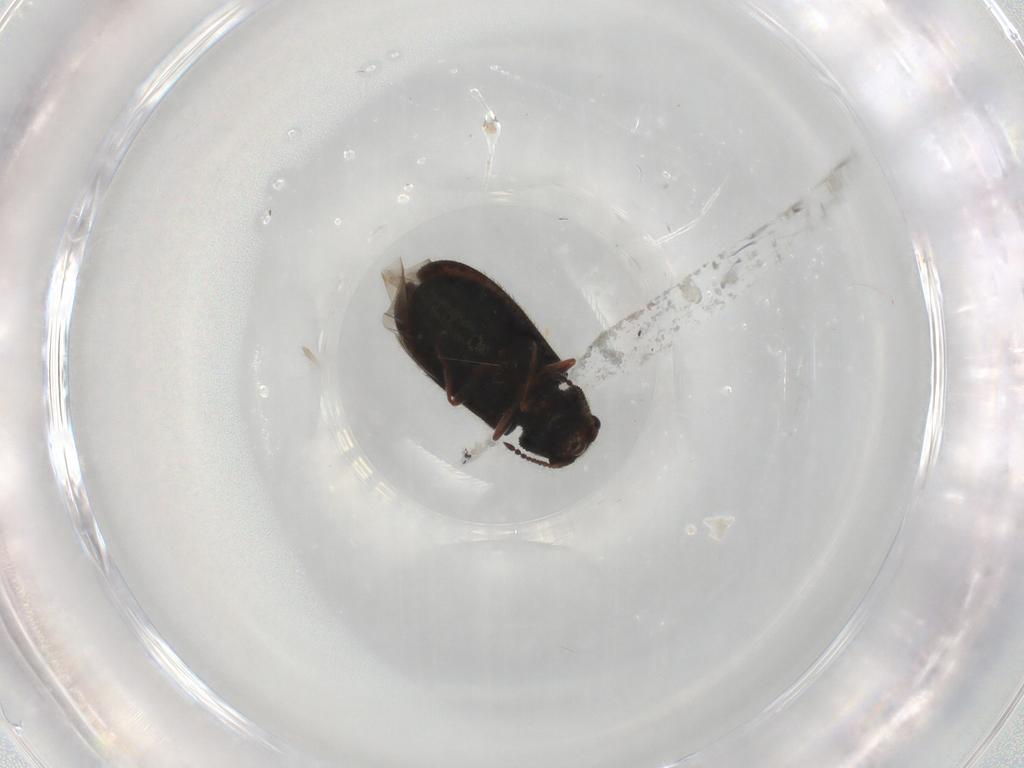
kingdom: Animalia
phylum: Arthropoda
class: Insecta
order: Coleoptera
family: Melyridae
